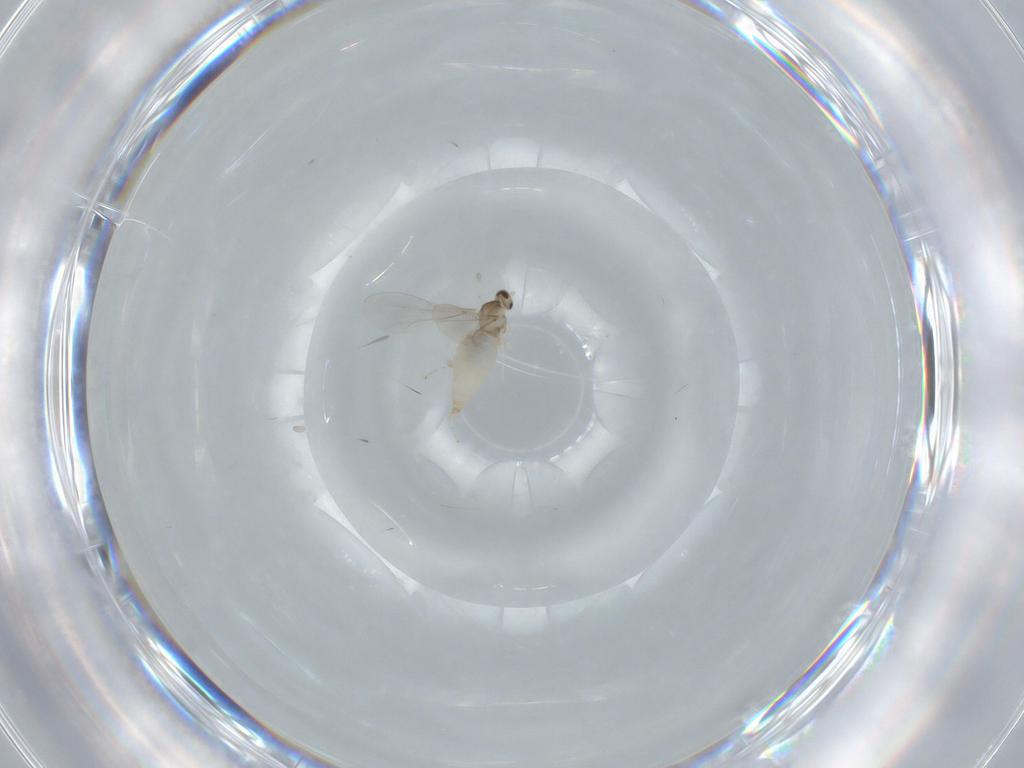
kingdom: Animalia
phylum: Arthropoda
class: Insecta
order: Diptera
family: Cecidomyiidae
